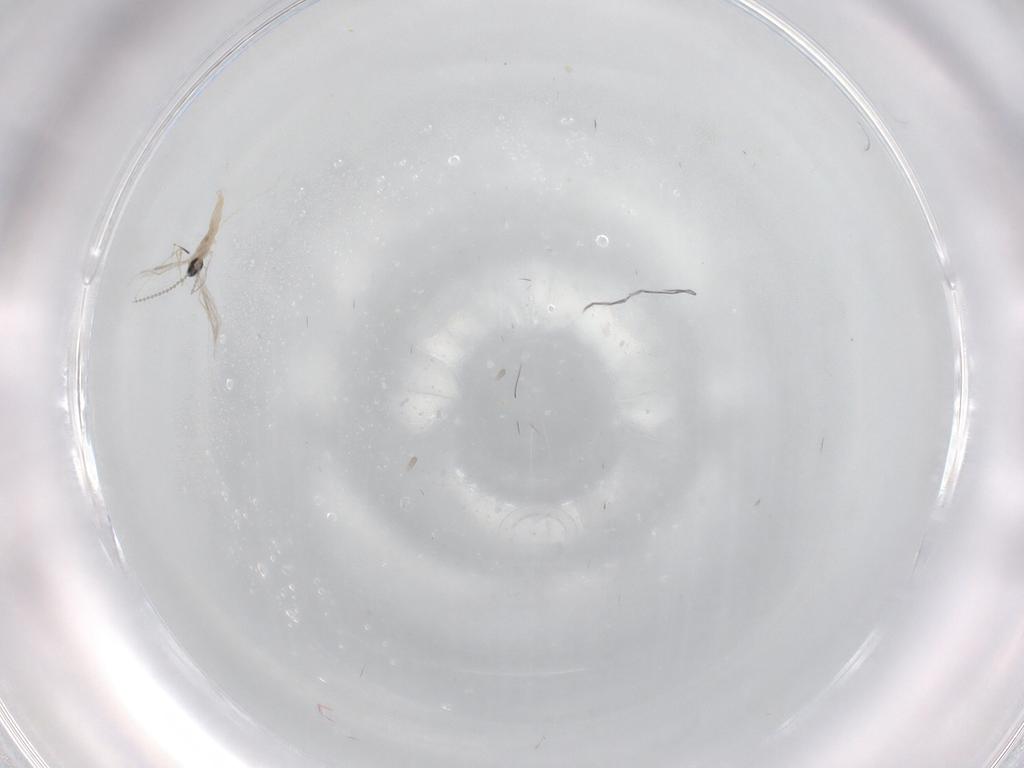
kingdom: Animalia
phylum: Arthropoda
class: Insecta
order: Diptera
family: Cecidomyiidae
